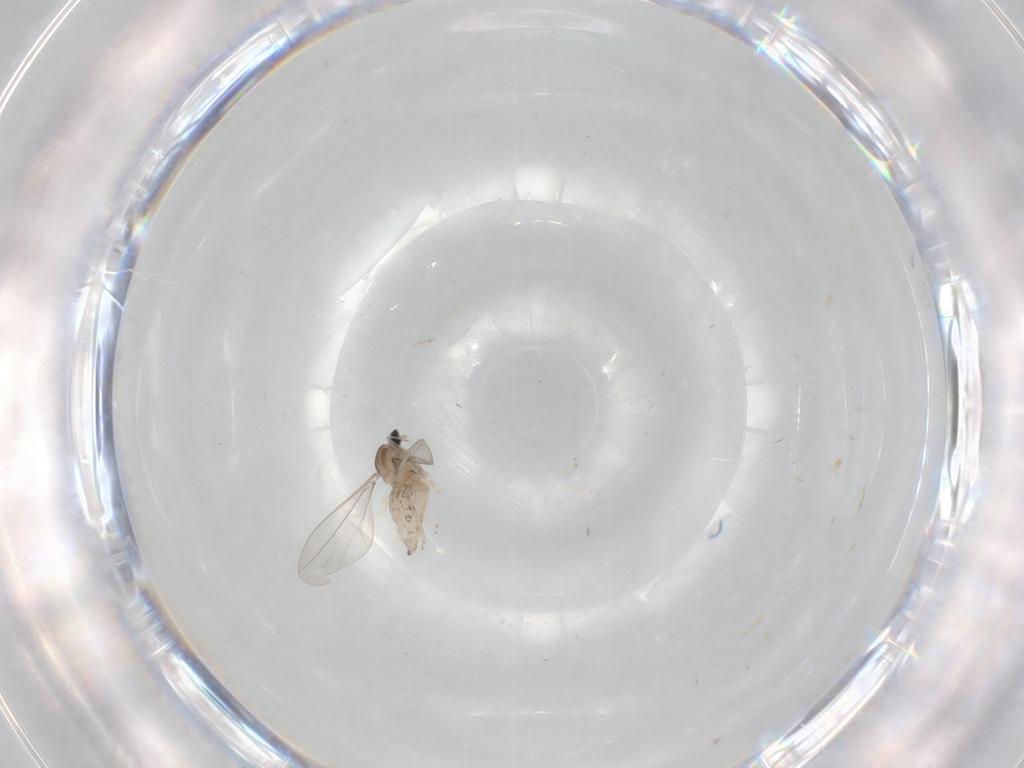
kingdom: Animalia
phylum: Arthropoda
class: Insecta
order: Diptera
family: Cecidomyiidae
